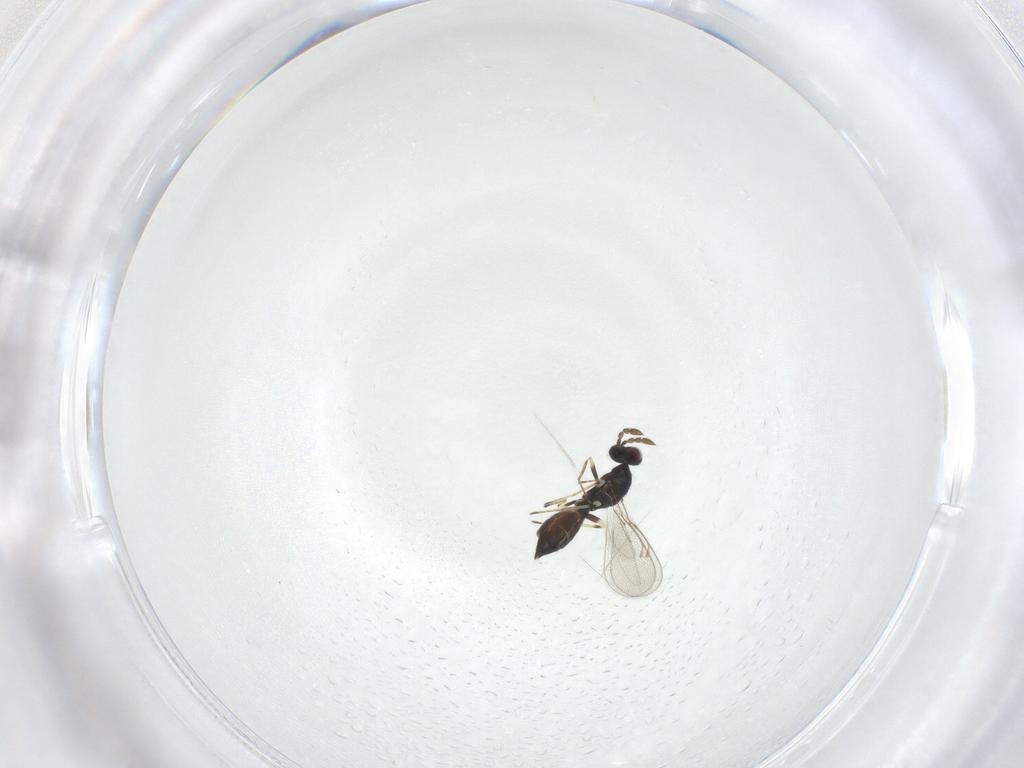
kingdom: Animalia
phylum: Arthropoda
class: Insecta
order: Hymenoptera
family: Eulophidae
